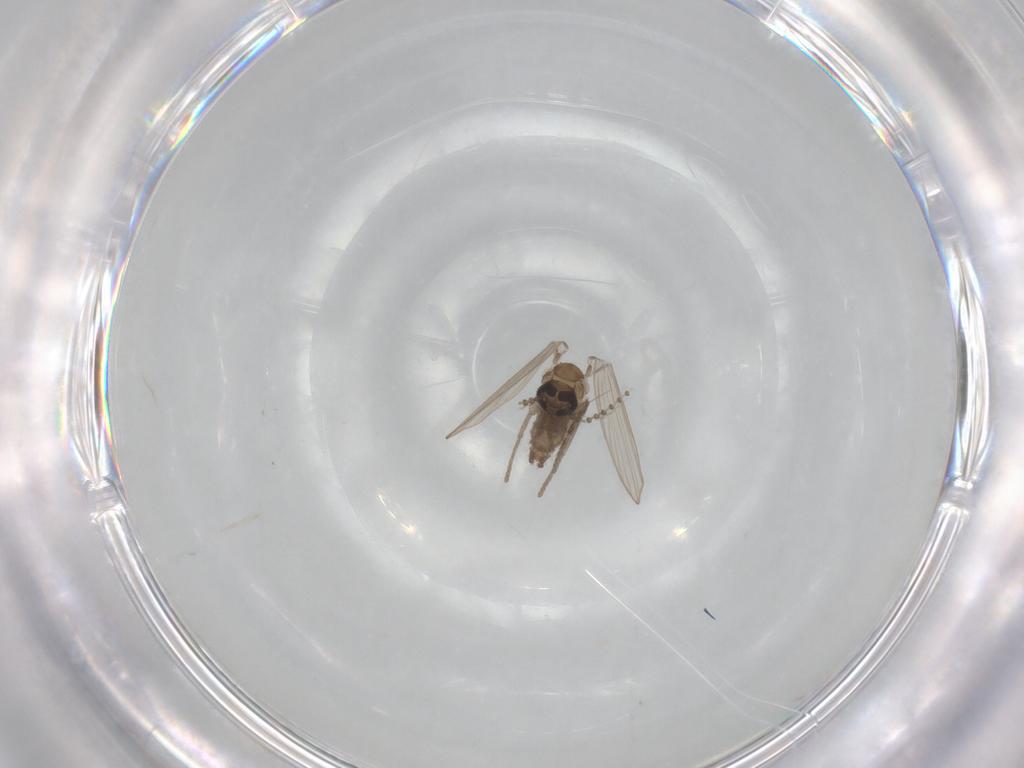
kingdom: Animalia
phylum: Arthropoda
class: Insecta
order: Diptera
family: Psychodidae
